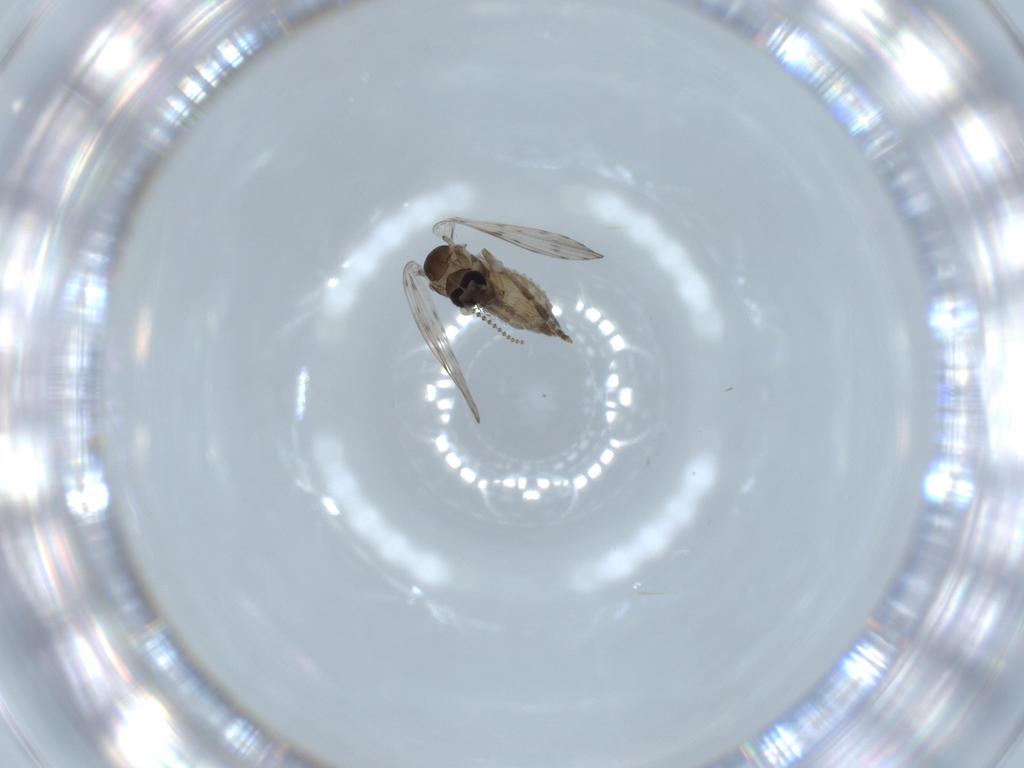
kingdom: Animalia
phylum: Arthropoda
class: Insecta
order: Diptera
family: Psychodidae
